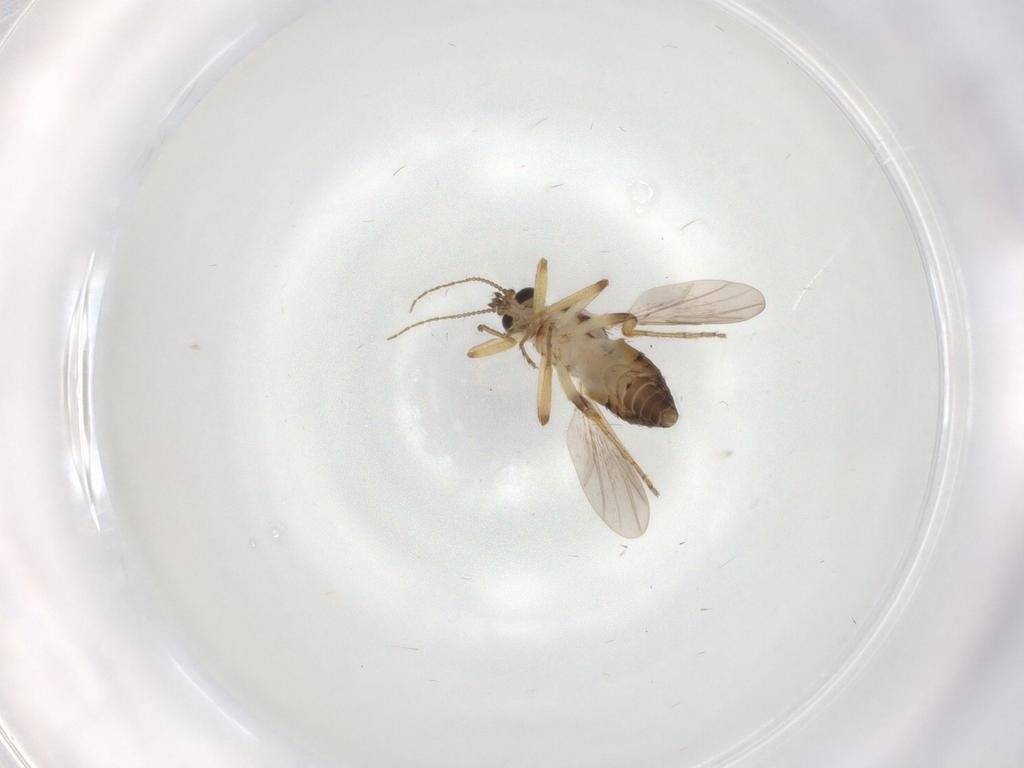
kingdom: Animalia
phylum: Arthropoda
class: Insecta
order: Diptera
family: Ceratopogonidae
